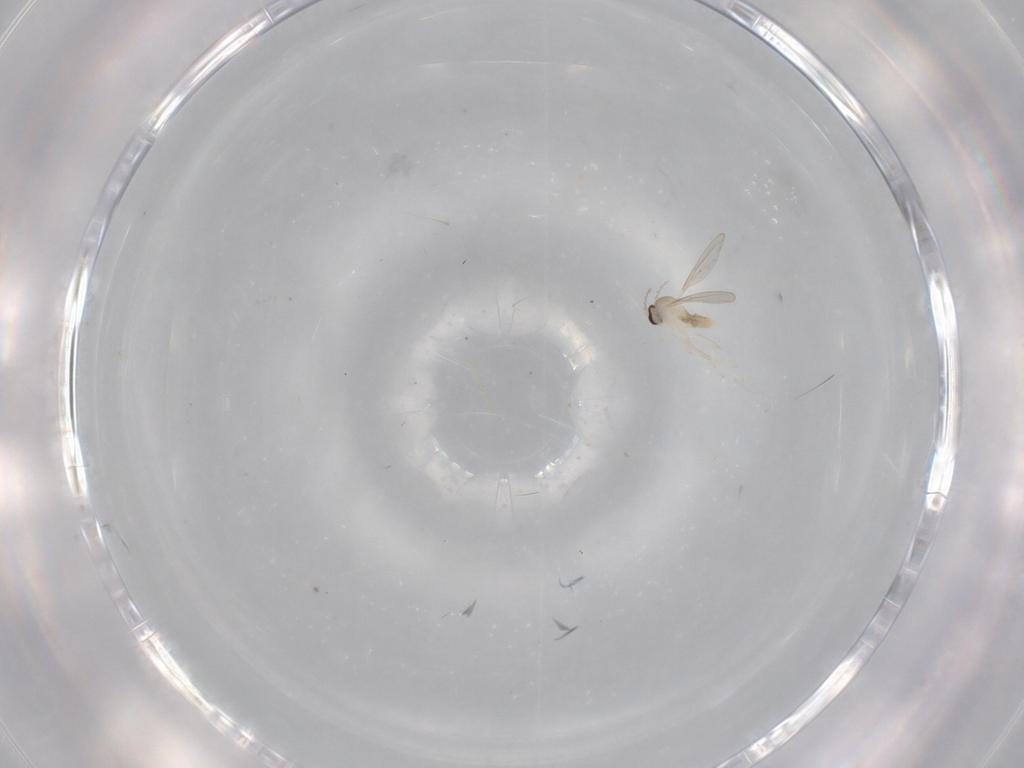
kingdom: Animalia
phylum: Arthropoda
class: Insecta
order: Diptera
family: Cecidomyiidae
